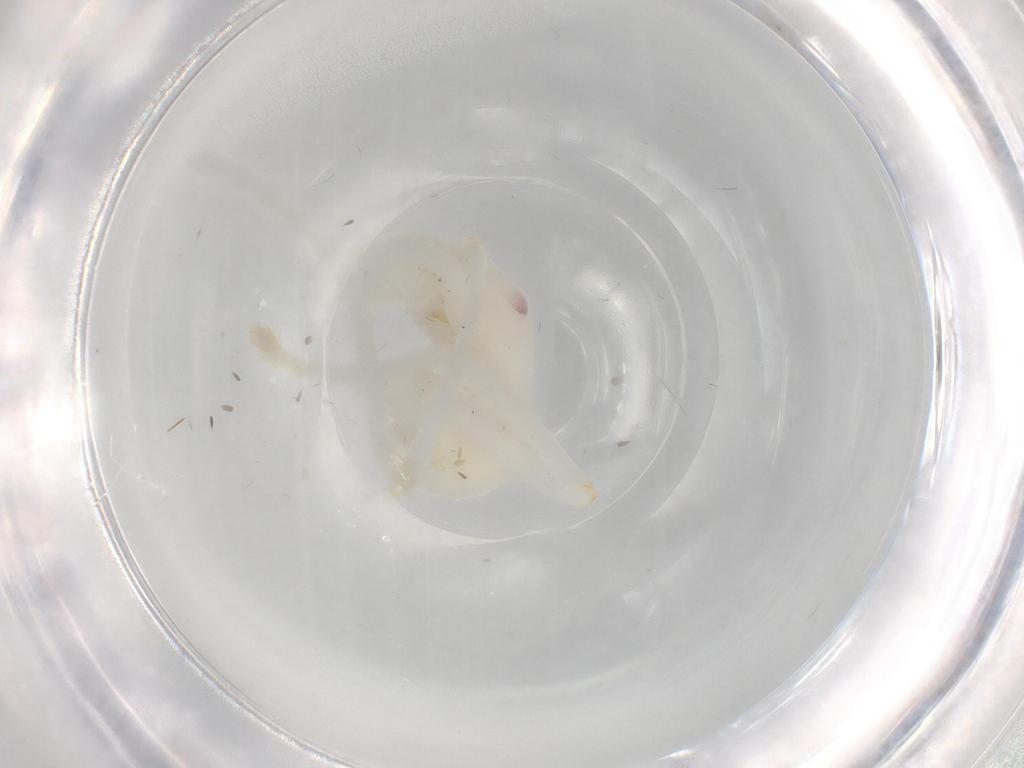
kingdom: Animalia
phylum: Arthropoda
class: Insecta
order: Hymenoptera
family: Formicidae
